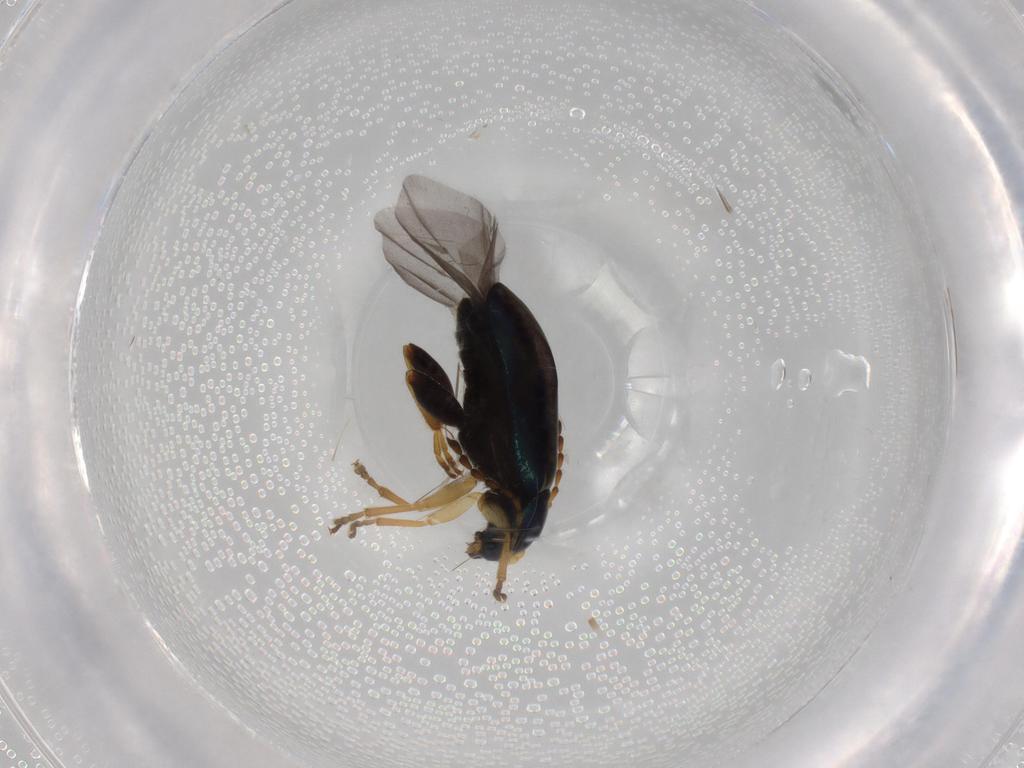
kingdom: Animalia
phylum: Arthropoda
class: Insecta
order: Coleoptera
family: Chrysomelidae
